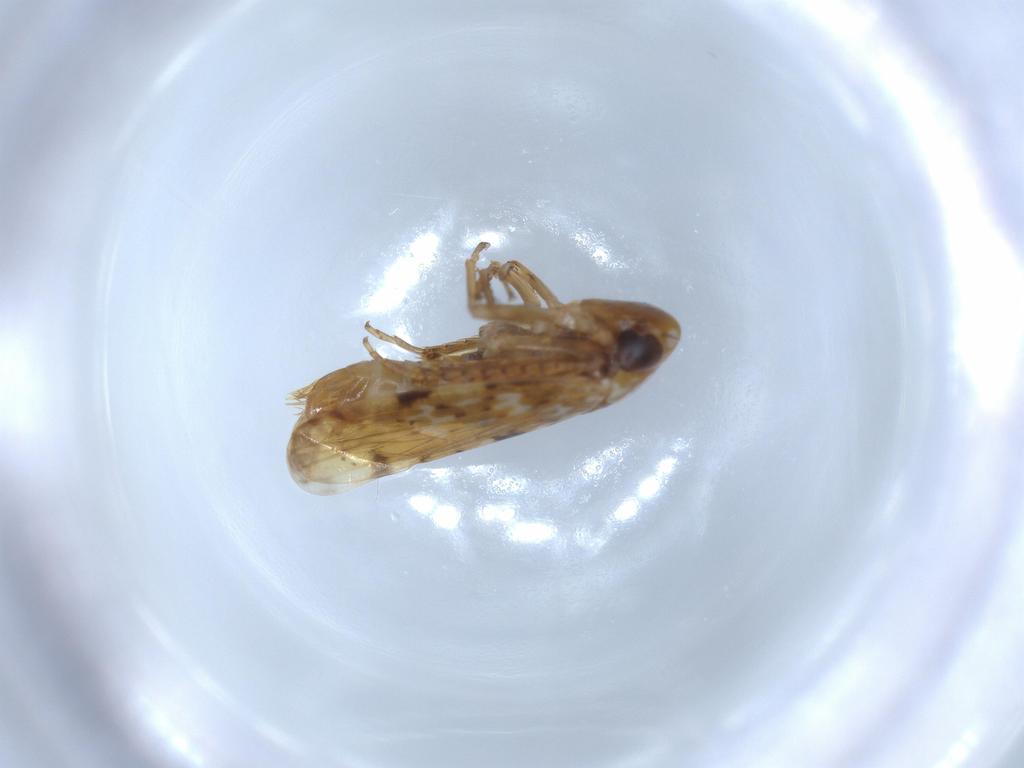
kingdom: Animalia
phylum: Arthropoda
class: Insecta
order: Hemiptera
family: Cicadellidae
